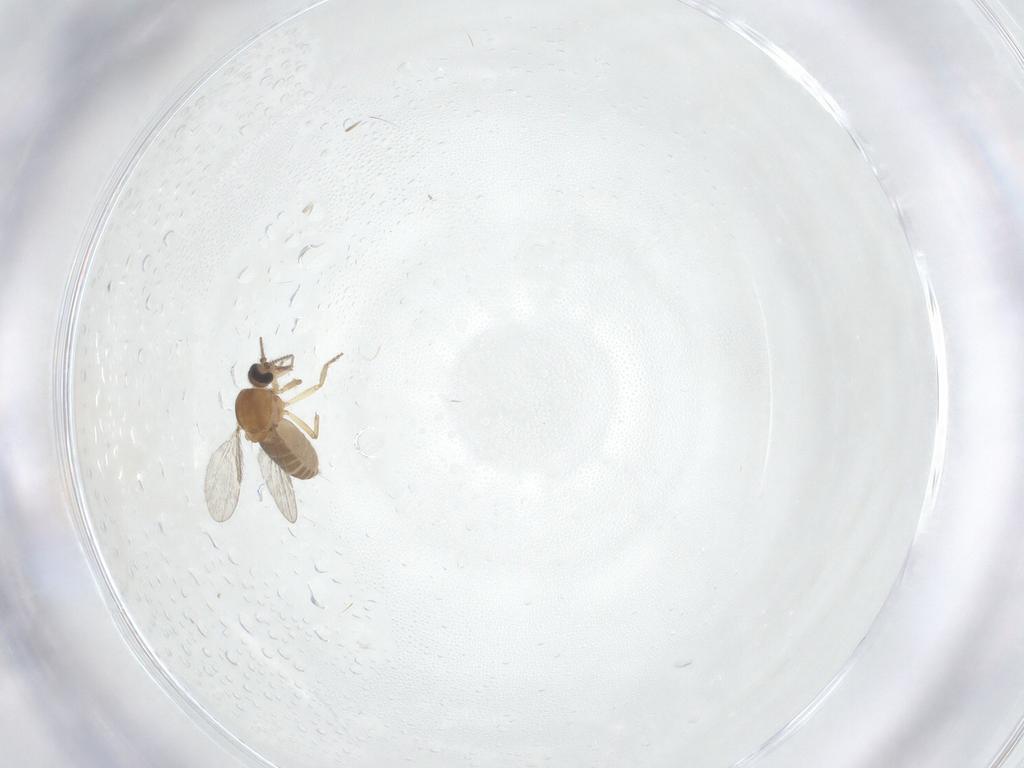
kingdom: Animalia
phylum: Arthropoda
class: Insecta
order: Diptera
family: Ceratopogonidae
